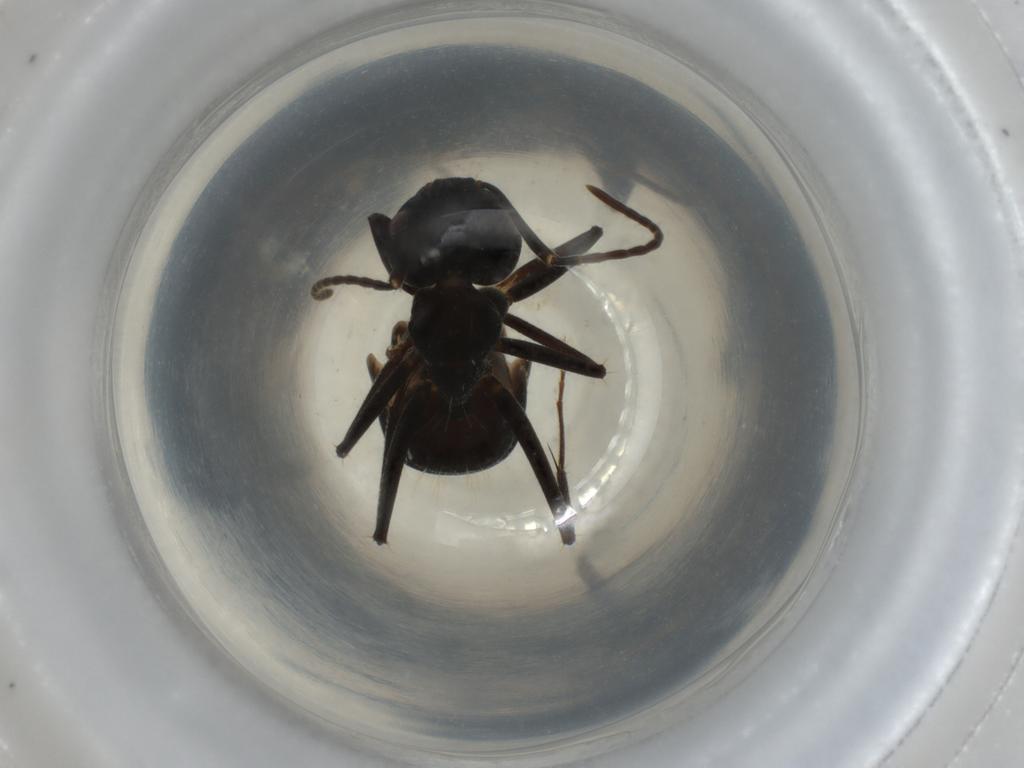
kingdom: Animalia
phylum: Arthropoda
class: Insecta
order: Hymenoptera
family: Formicidae
